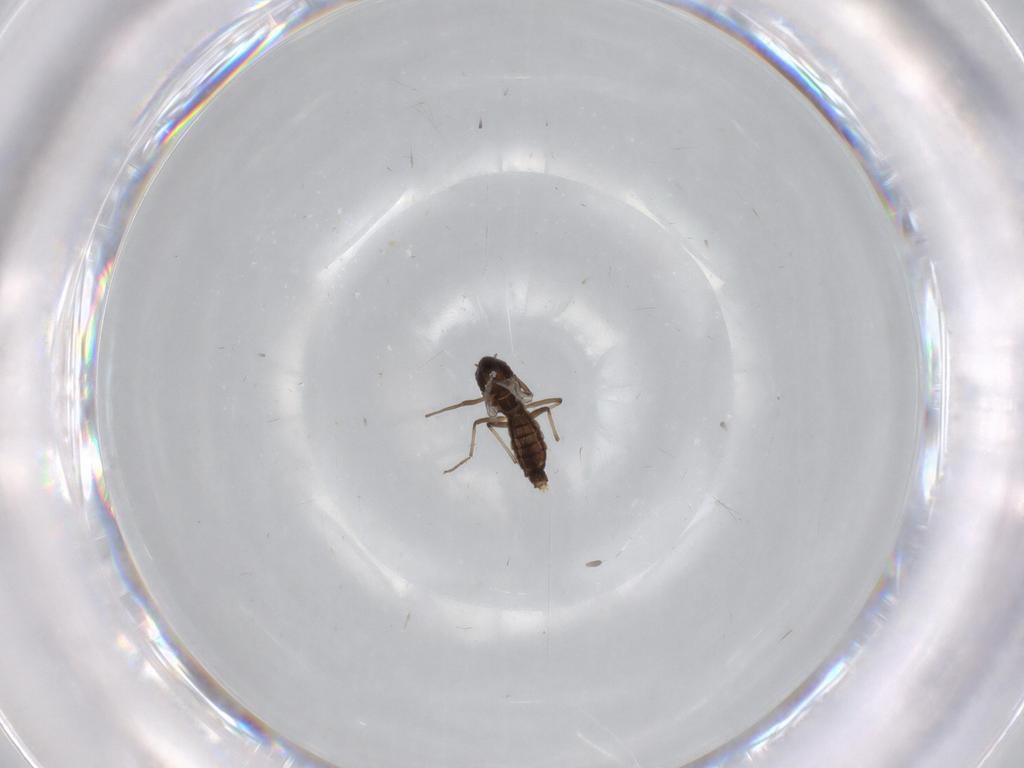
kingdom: Animalia
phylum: Arthropoda
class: Insecta
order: Diptera
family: Chironomidae
